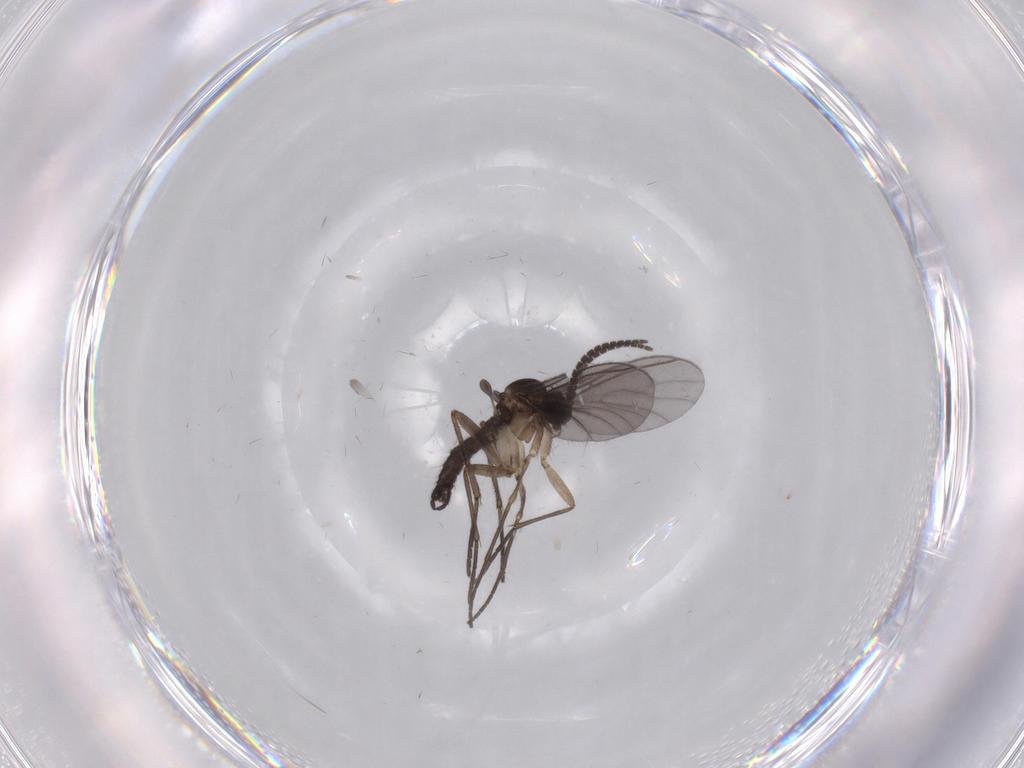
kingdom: Animalia
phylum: Arthropoda
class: Insecta
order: Diptera
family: Sciaridae
